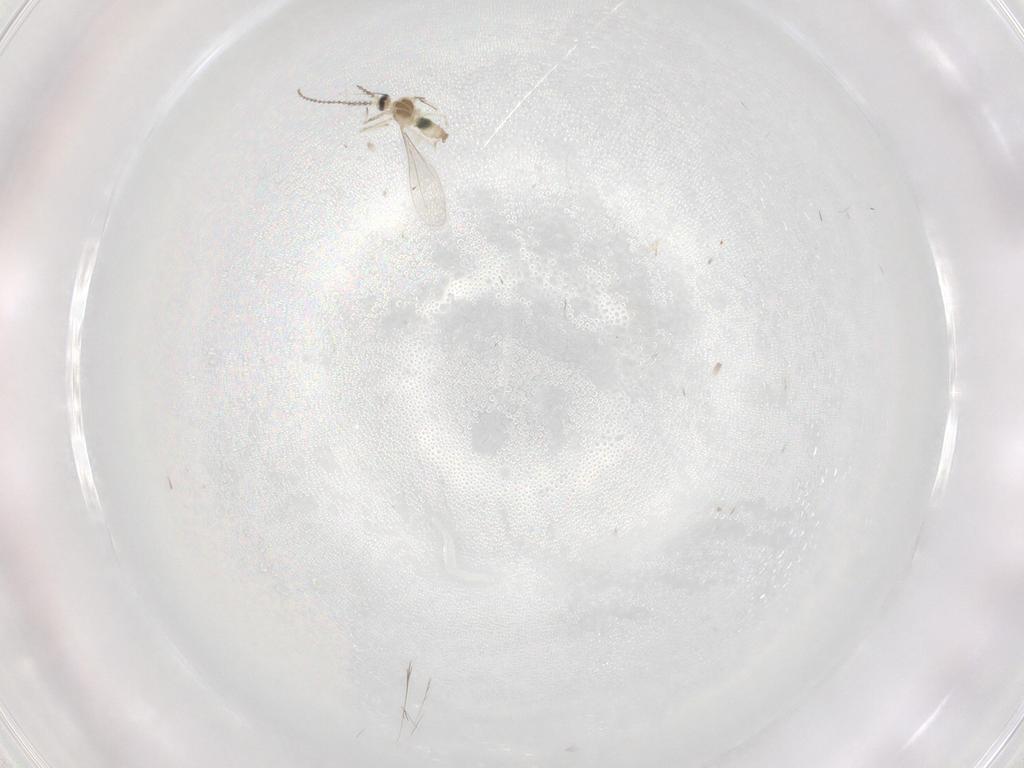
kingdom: Animalia
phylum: Arthropoda
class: Insecta
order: Diptera
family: Cecidomyiidae
